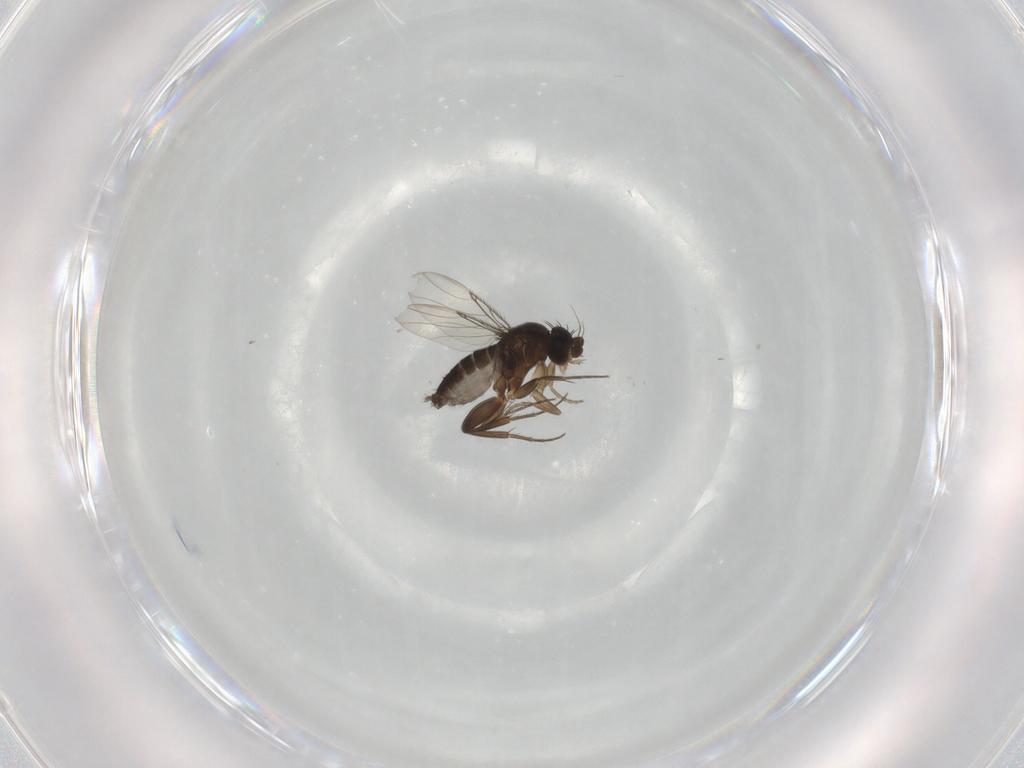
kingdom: Animalia
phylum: Arthropoda
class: Insecta
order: Diptera
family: Phoridae
